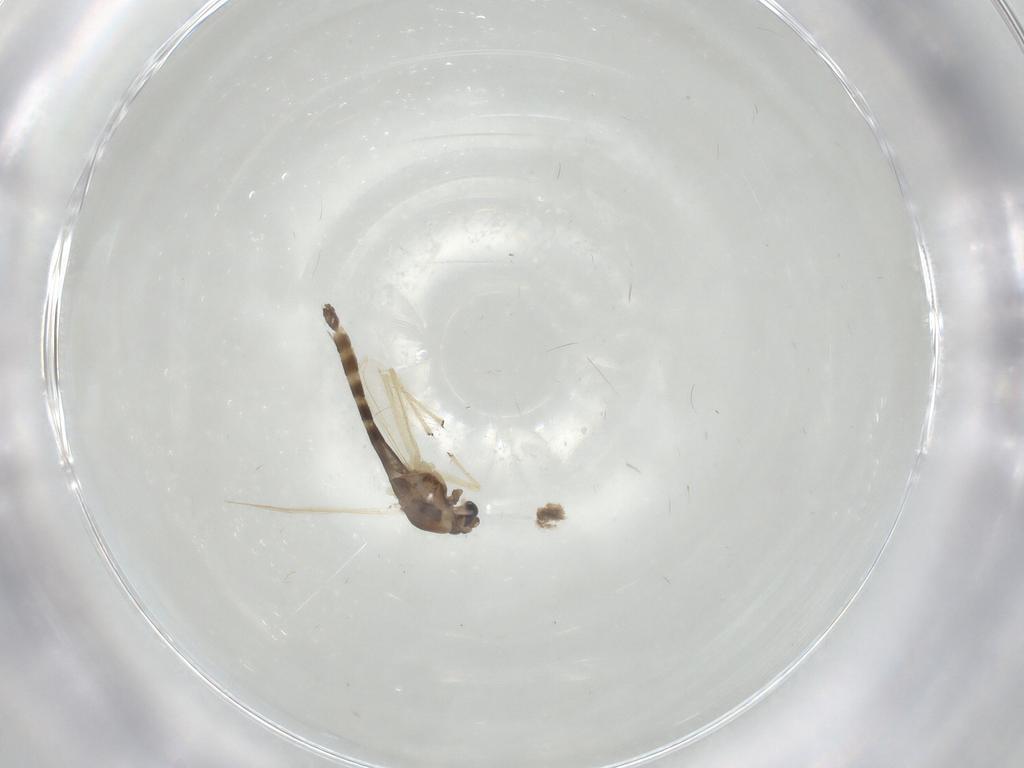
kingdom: Animalia
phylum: Arthropoda
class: Insecta
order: Diptera
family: Chironomidae
